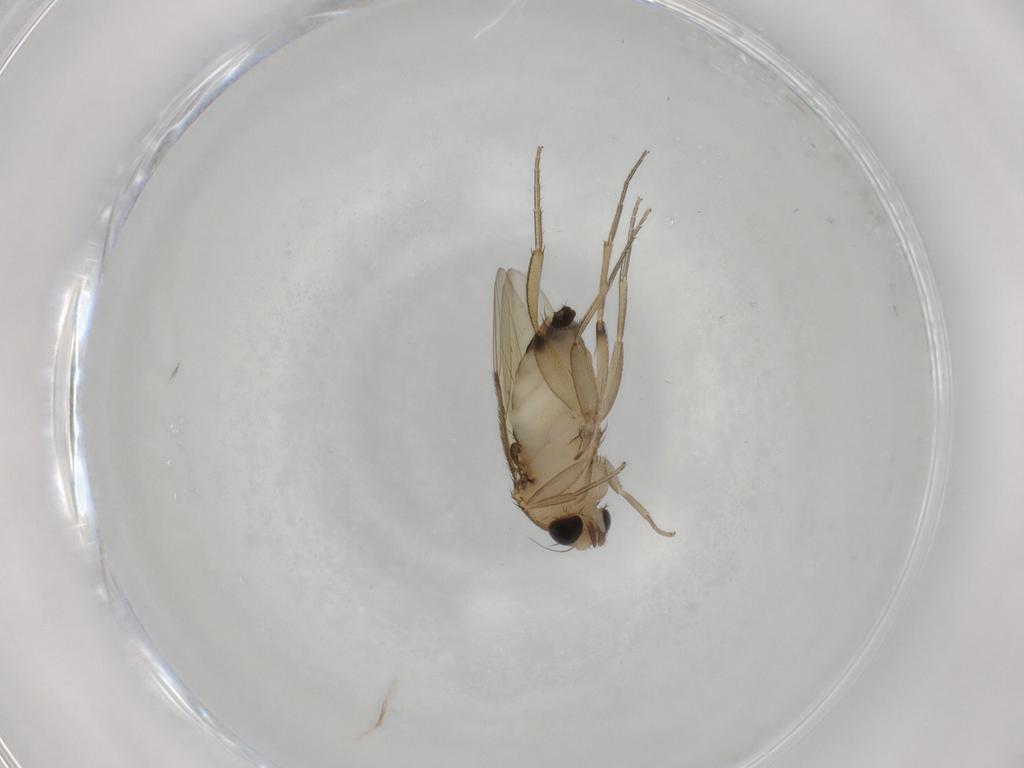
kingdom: Animalia
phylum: Arthropoda
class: Insecta
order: Diptera
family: Phoridae
